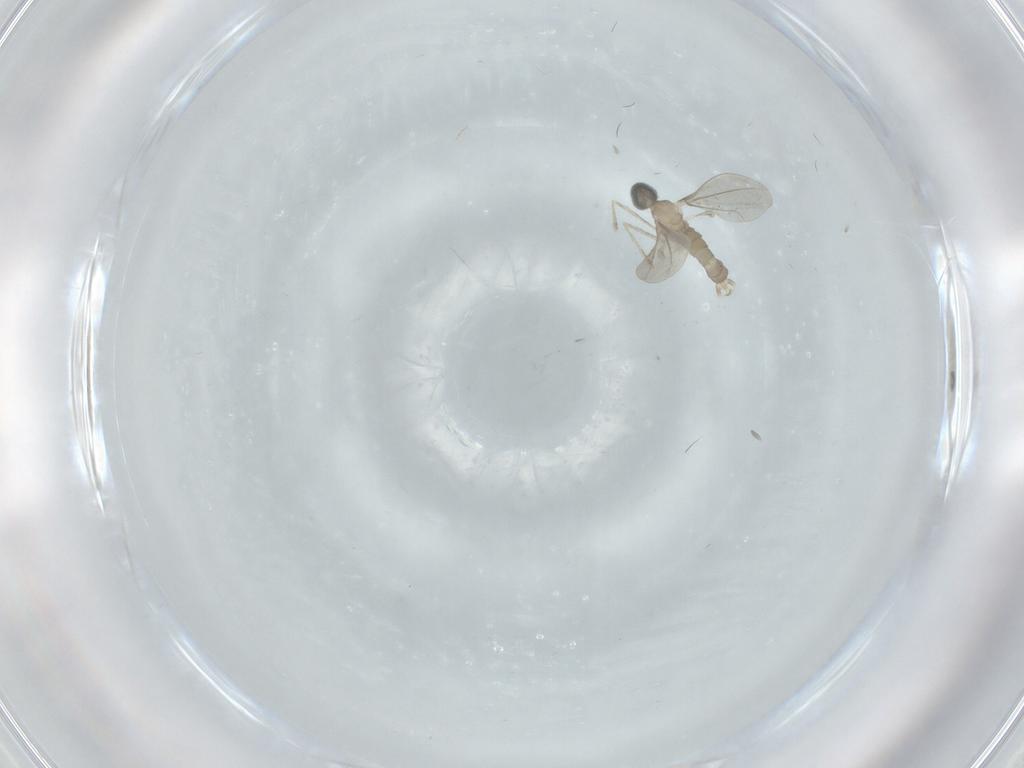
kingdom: Animalia
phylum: Arthropoda
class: Insecta
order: Diptera
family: Cecidomyiidae
